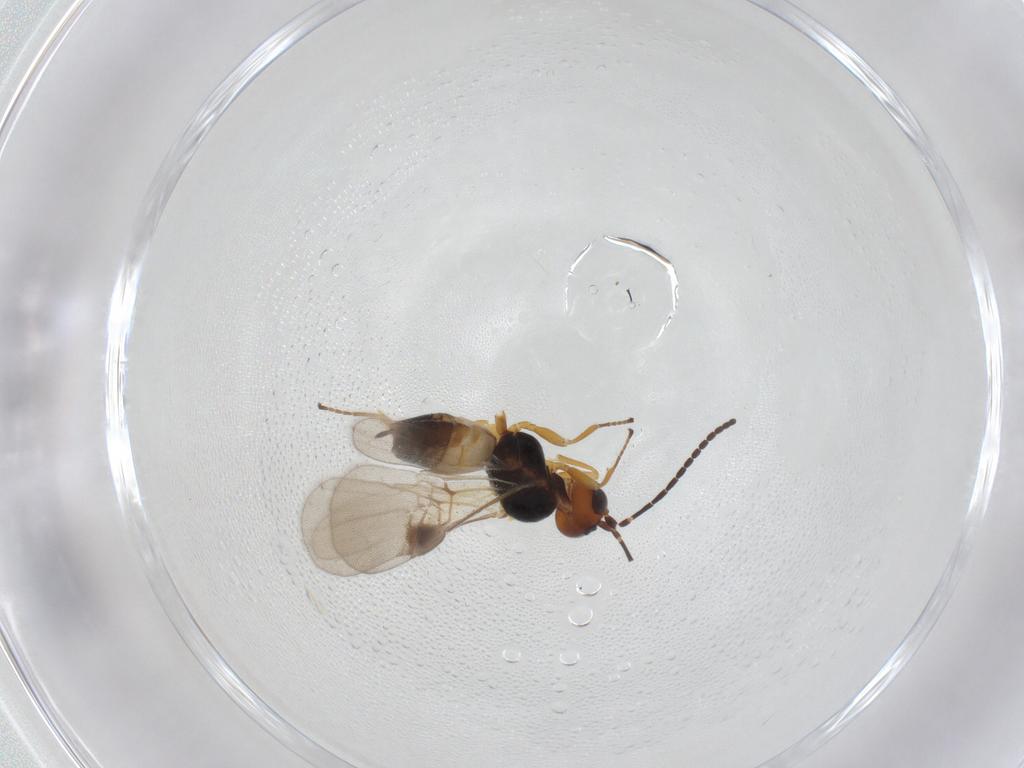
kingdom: Animalia
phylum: Arthropoda
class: Insecta
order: Hymenoptera
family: Braconidae
